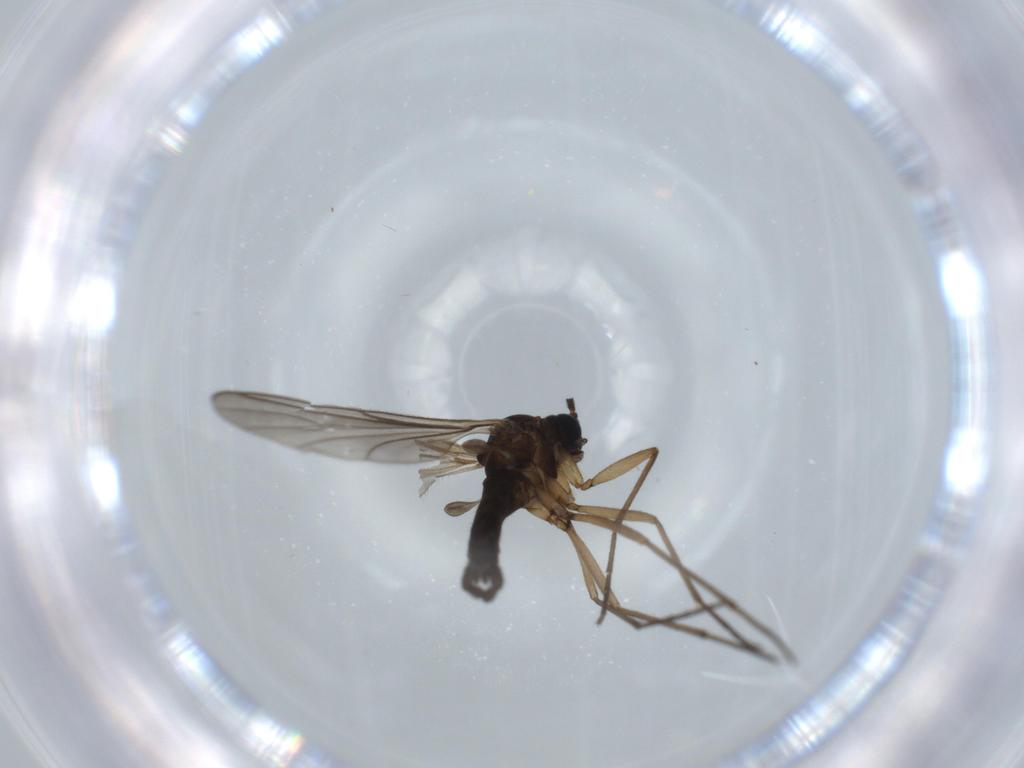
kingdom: Animalia
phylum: Arthropoda
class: Insecta
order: Diptera
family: Sciaridae
